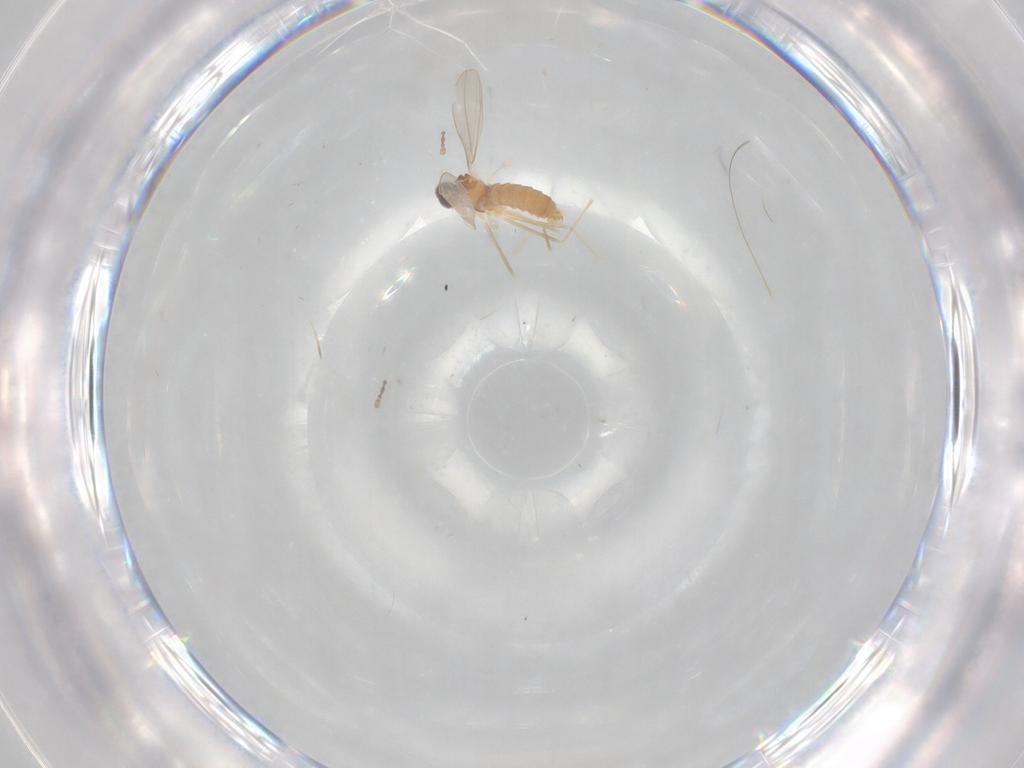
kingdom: Animalia
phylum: Arthropoda
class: Insecta
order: Diptera
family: Cecidomyiidae
